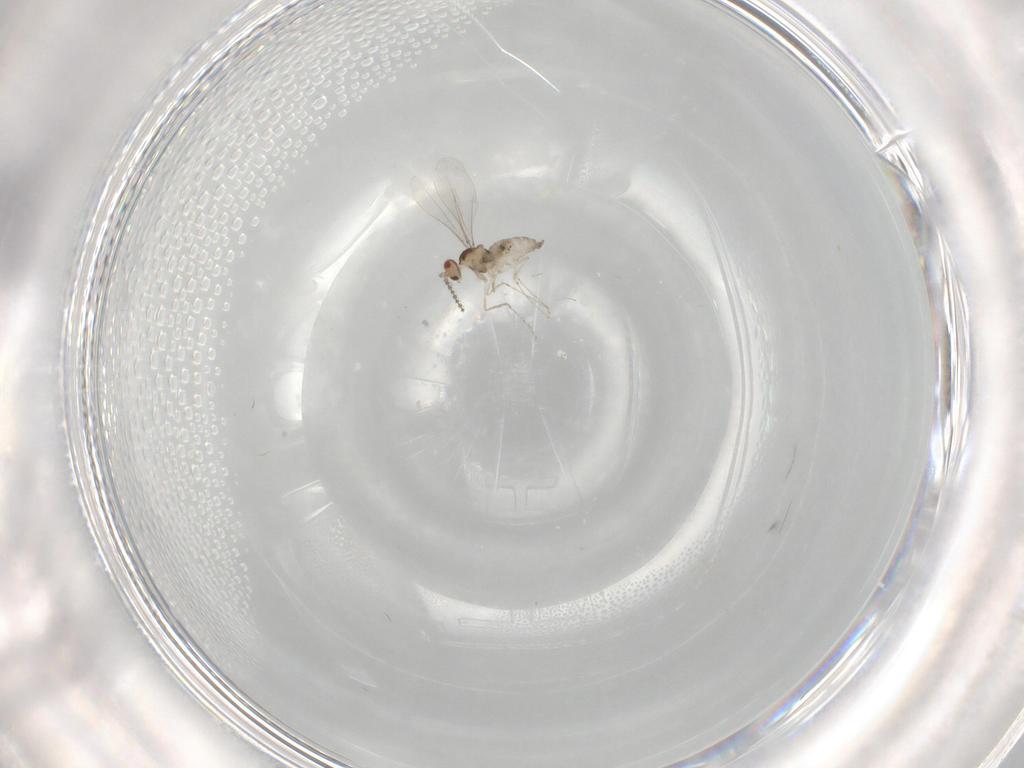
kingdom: Animalia
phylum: Arthropoda
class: Insecta
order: Diptera
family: Cecidomyiidae
